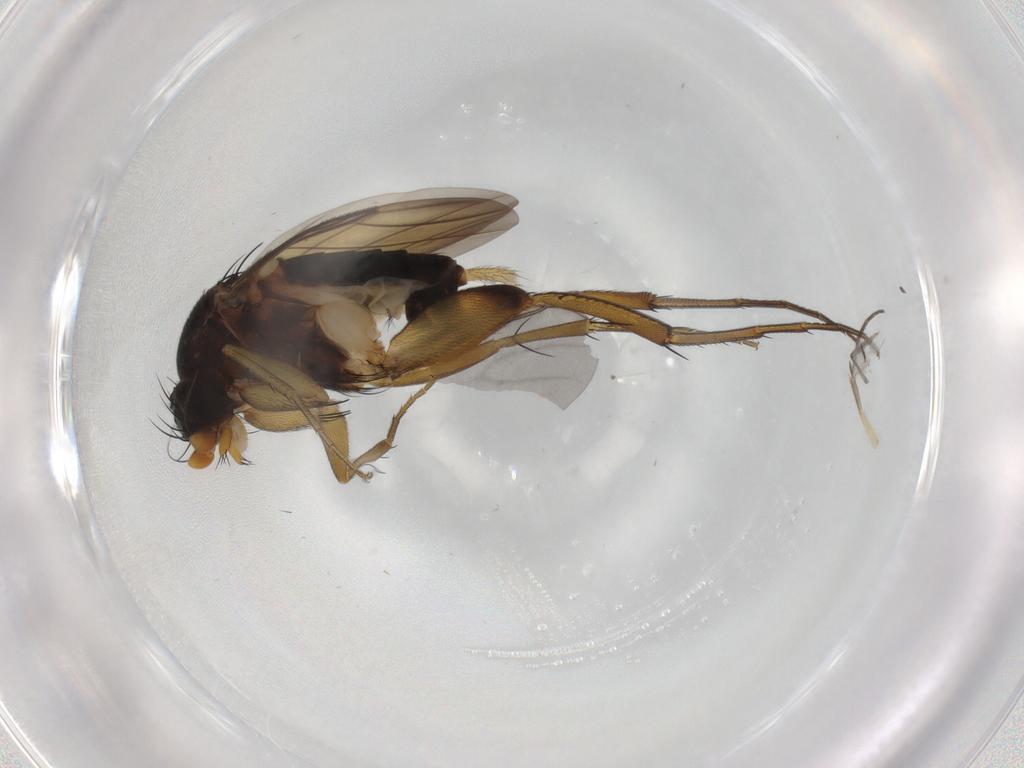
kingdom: Animalia
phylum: Arthropoda
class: Insecta
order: Diptera
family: Phoridae
